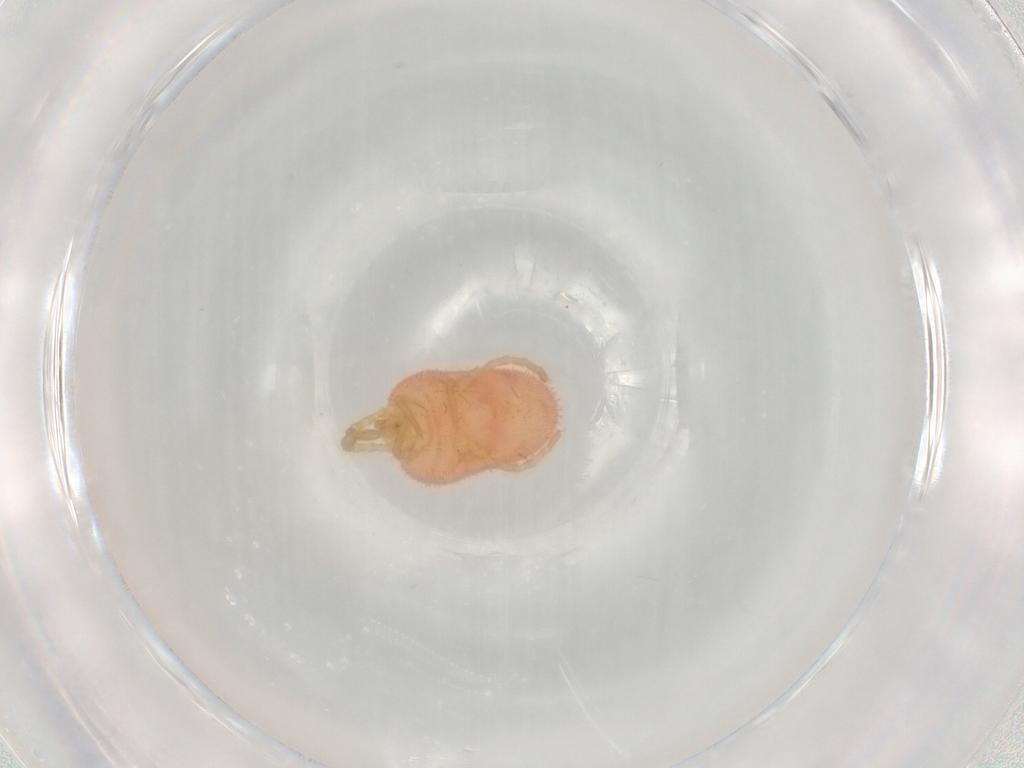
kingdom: Animalia
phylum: Arthropoda
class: Arachnida
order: Trombidiformes
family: Trombidiidae
